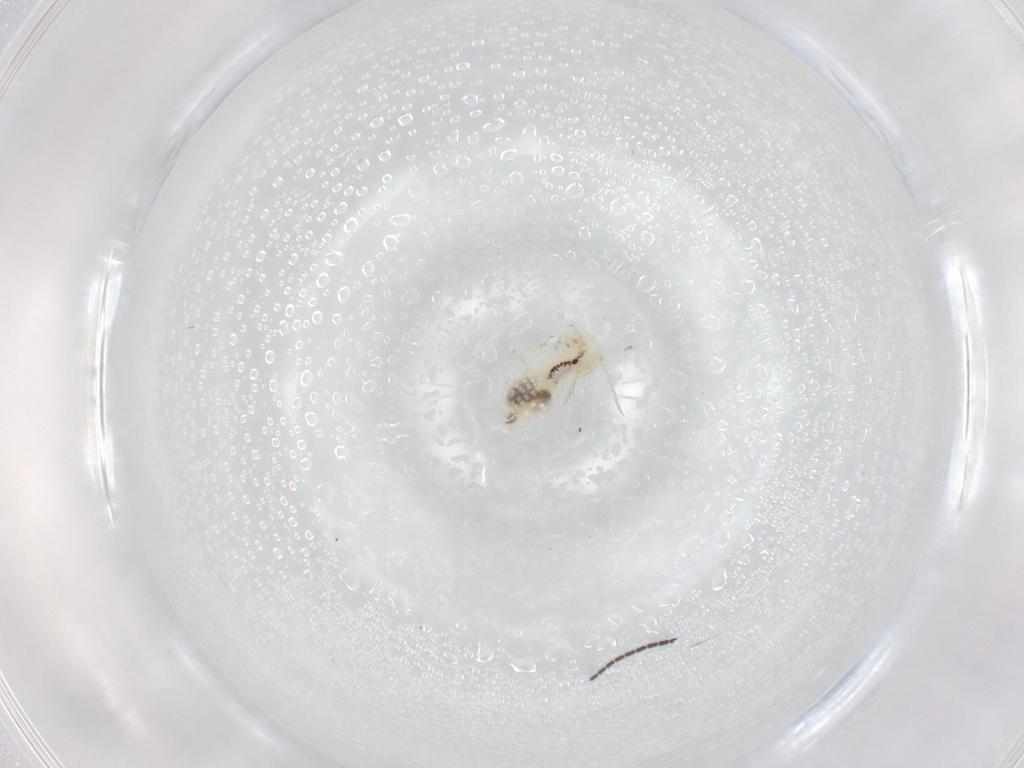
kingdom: Animalia
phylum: Arthropoda
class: Insecta
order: Psocodea
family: Caeciliusidae
